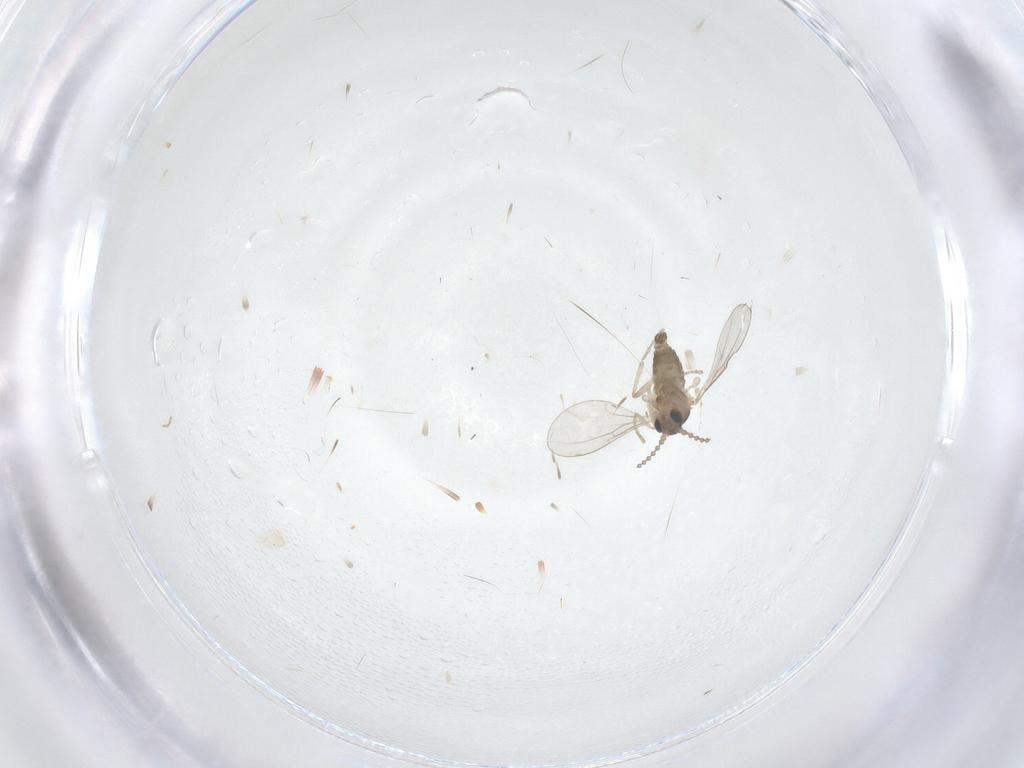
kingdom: Animalia
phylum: Arthropoda
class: Insecta
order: Diptera
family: Cecidomyiidae
